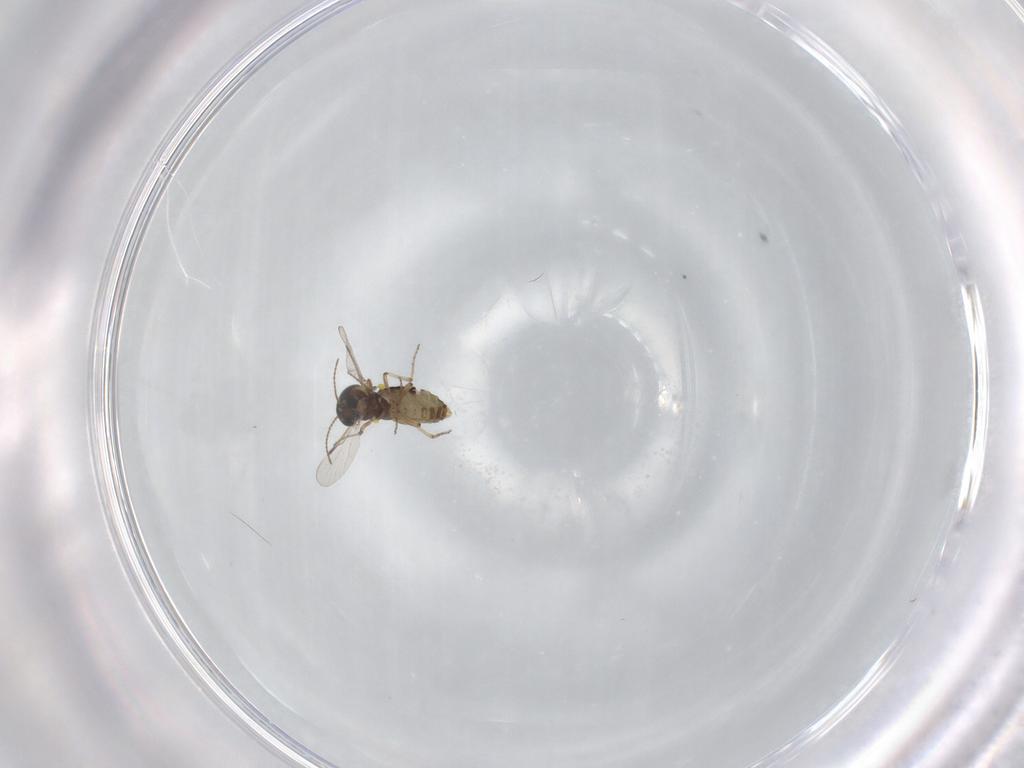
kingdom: Animalia
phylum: Arthropoda
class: Insecta
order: Diptera
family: Ceratopogonidae
